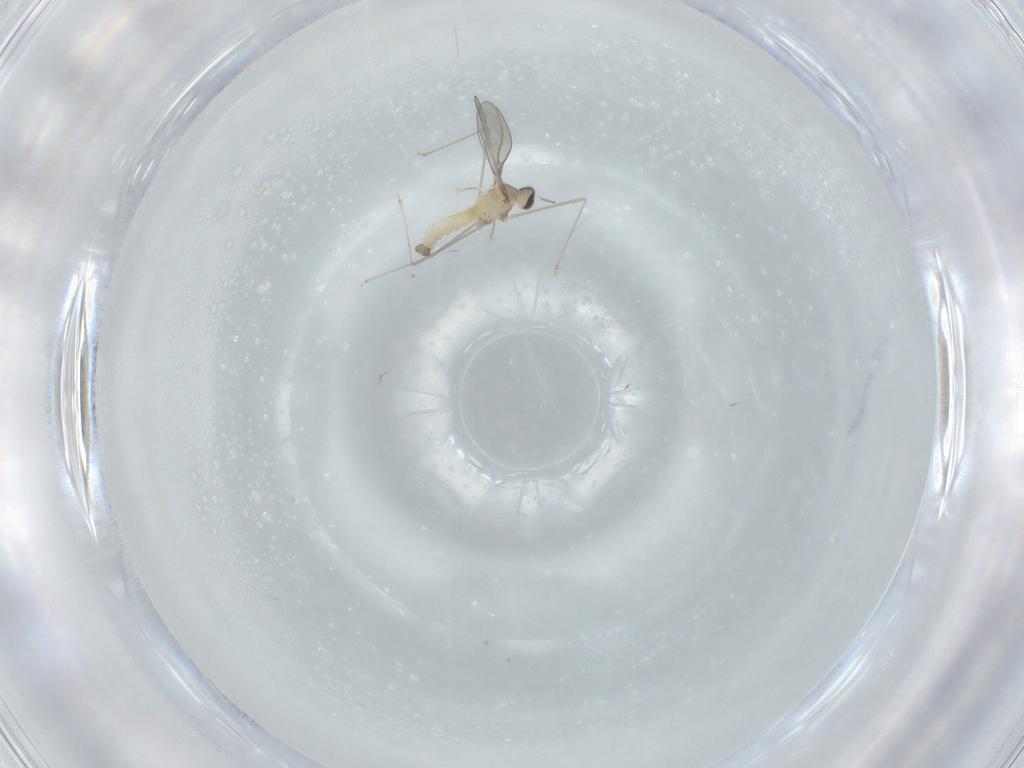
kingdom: Animalia
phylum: Arthropoda
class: Insecta
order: Diptera
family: Cecidomyiidae
